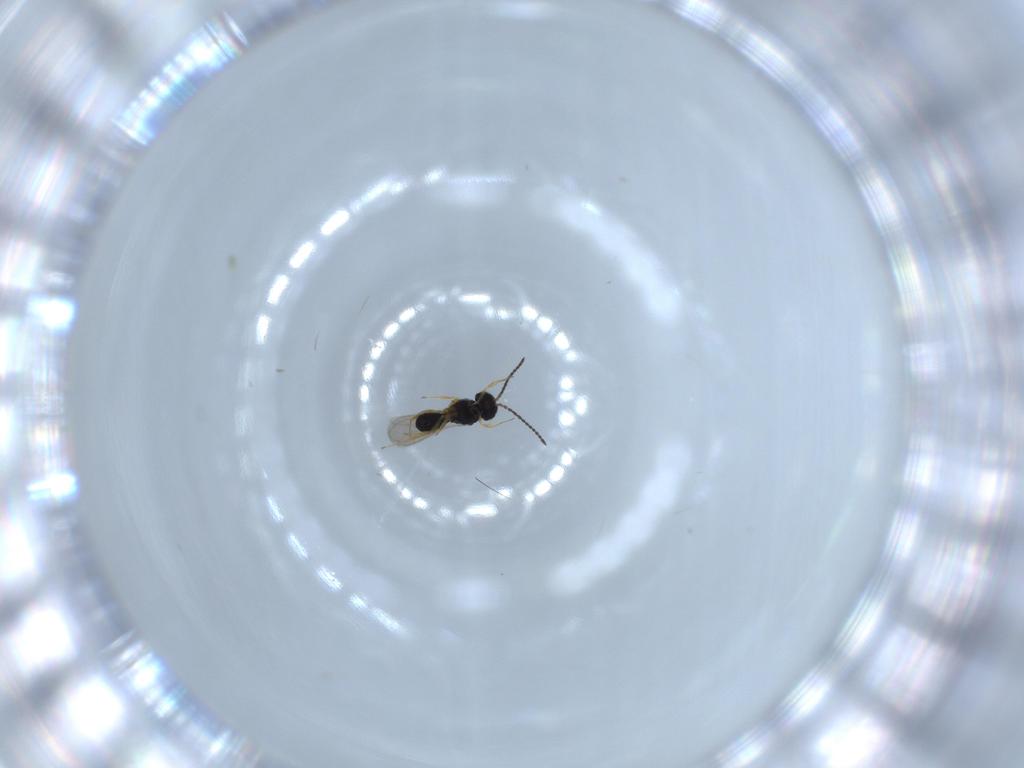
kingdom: Animalia
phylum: Arthropoda
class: Insecta
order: Hymenoptera
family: Scelionidae
